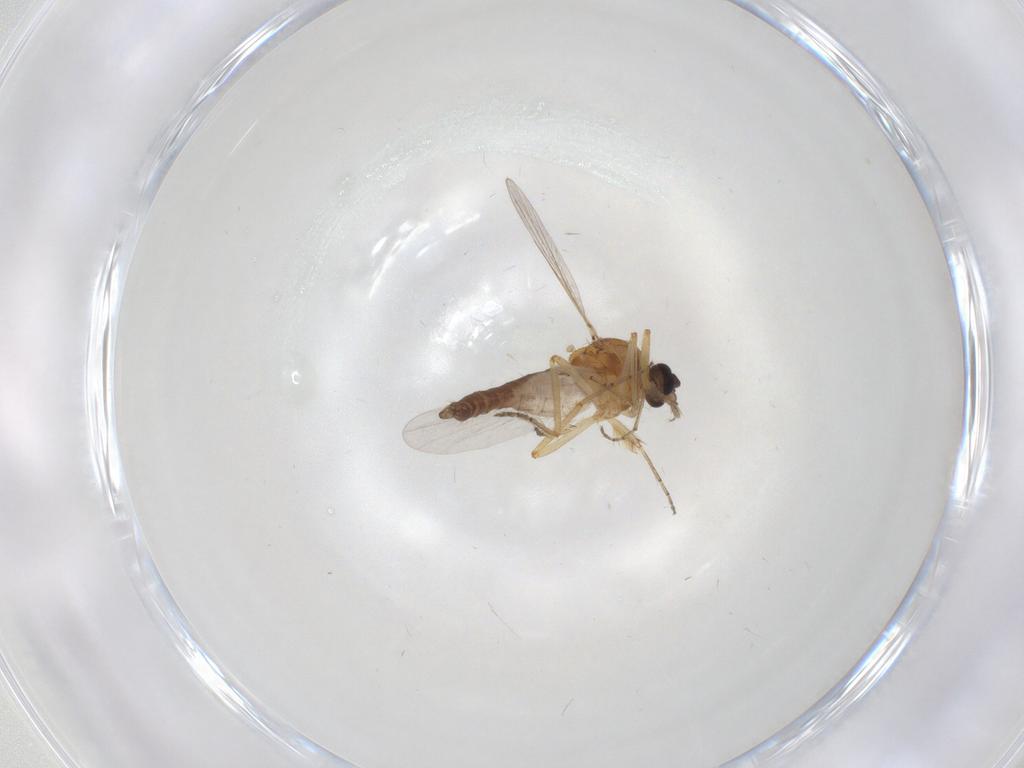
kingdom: Animalia
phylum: Arthropoda
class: Insecta
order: Diptera
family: Ceratopogonidae
